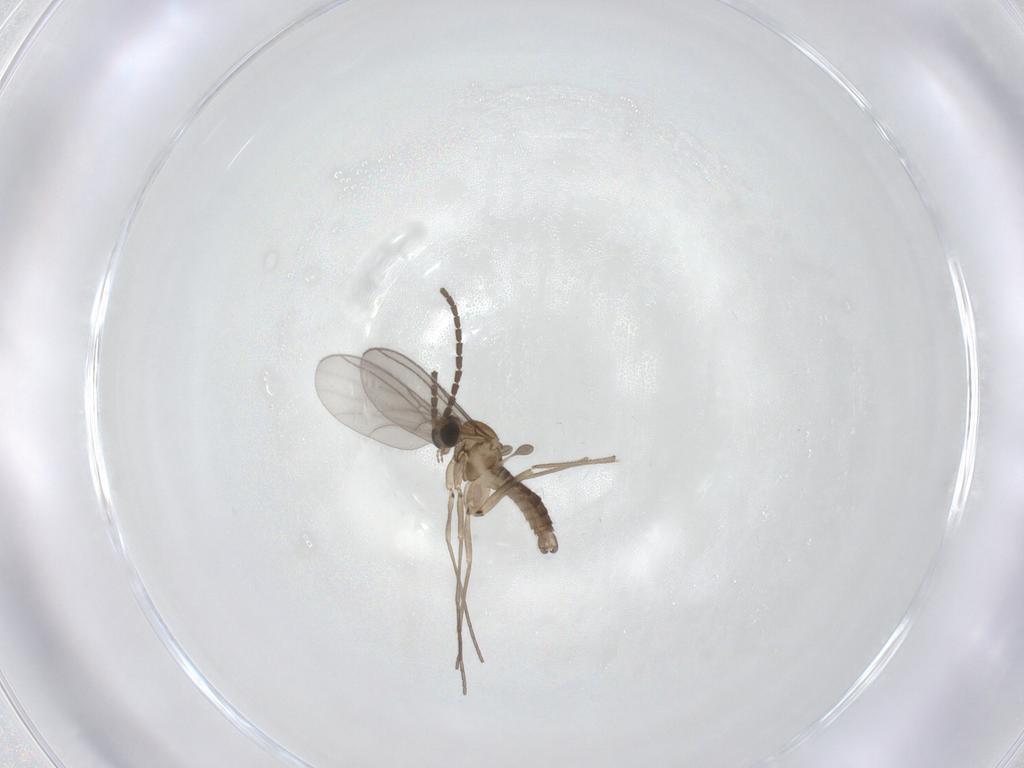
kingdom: Animalia
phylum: Arthropoda
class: Insecta
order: Diptera
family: Sciaridae
